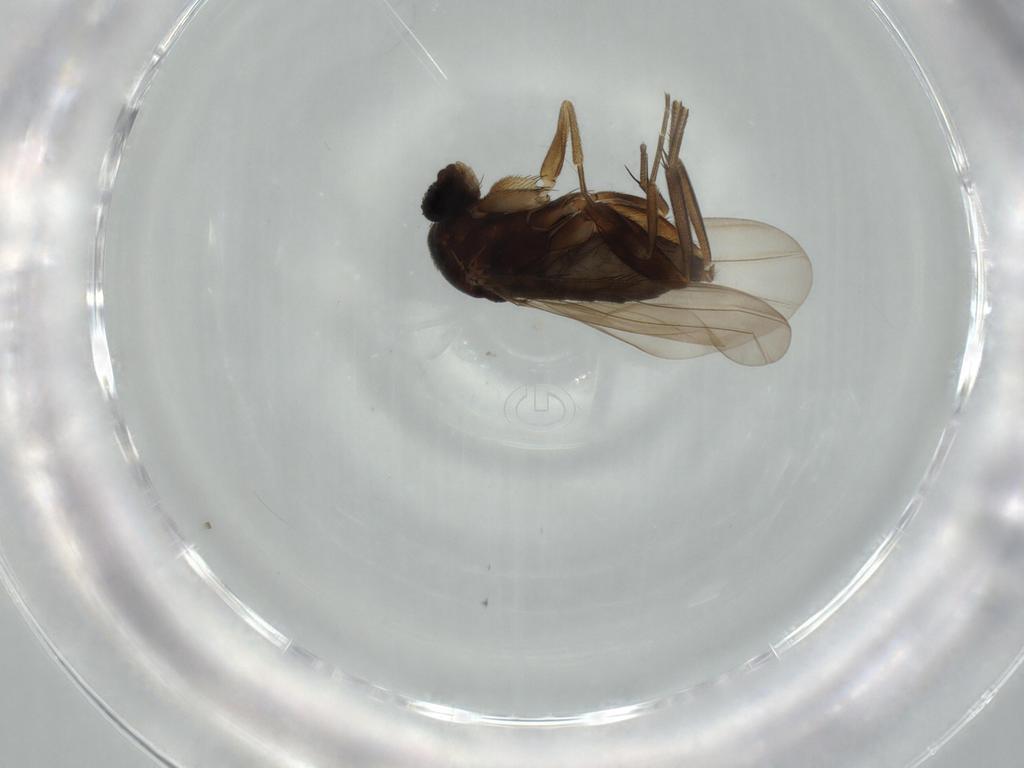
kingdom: Animalia
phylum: Arthropoda
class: Insecta
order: Diptera
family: Phoridae
